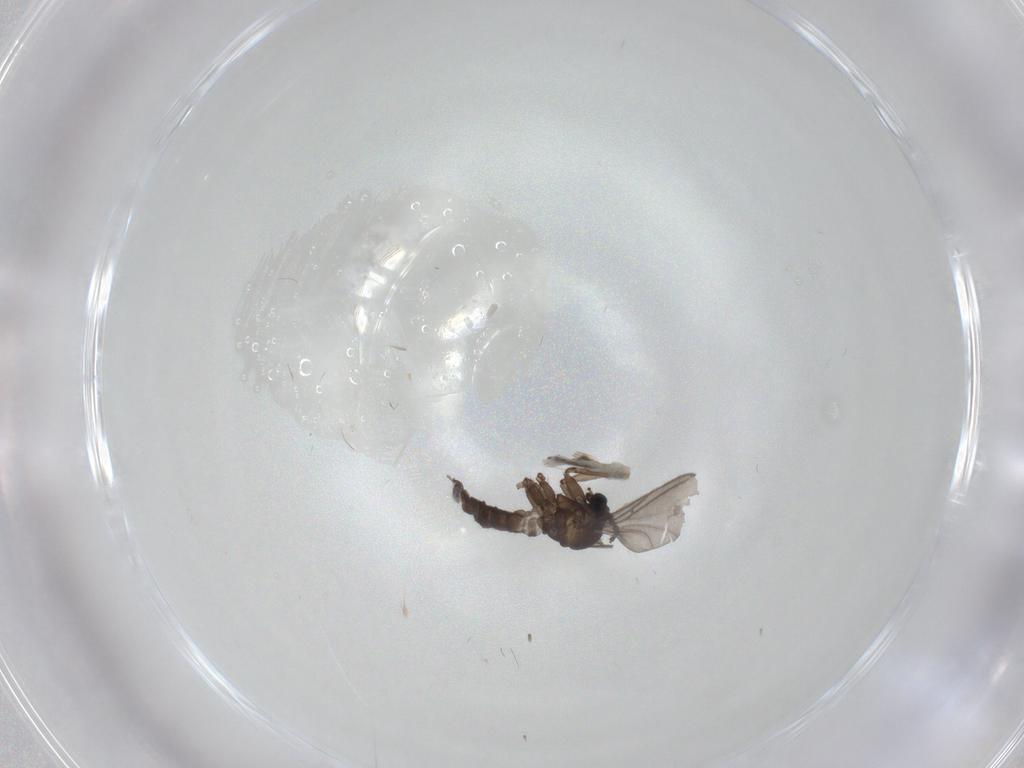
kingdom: Animalia
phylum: Arthropoda
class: Insecta
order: Diptera
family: Sciaridae
